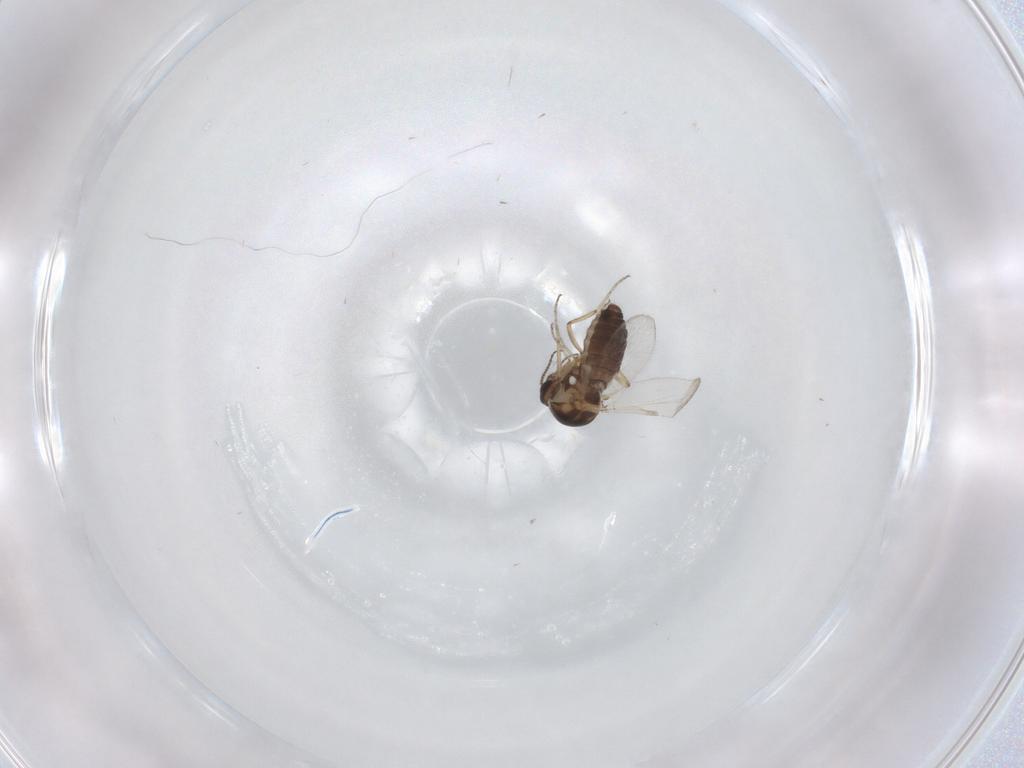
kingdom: Animalia
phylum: Arthropoda
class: Insecta
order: Diptera
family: Ceratopogonidae
